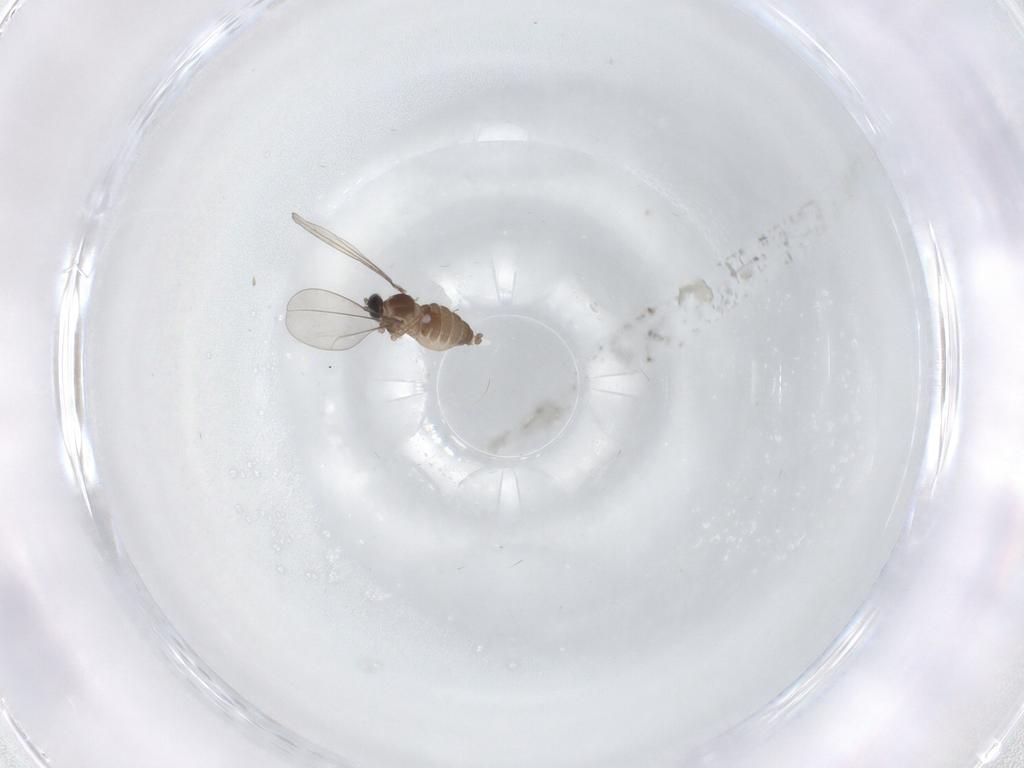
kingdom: Animalia
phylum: Arthropoda
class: Insecta
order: Diptera
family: Cecidomyiidae
